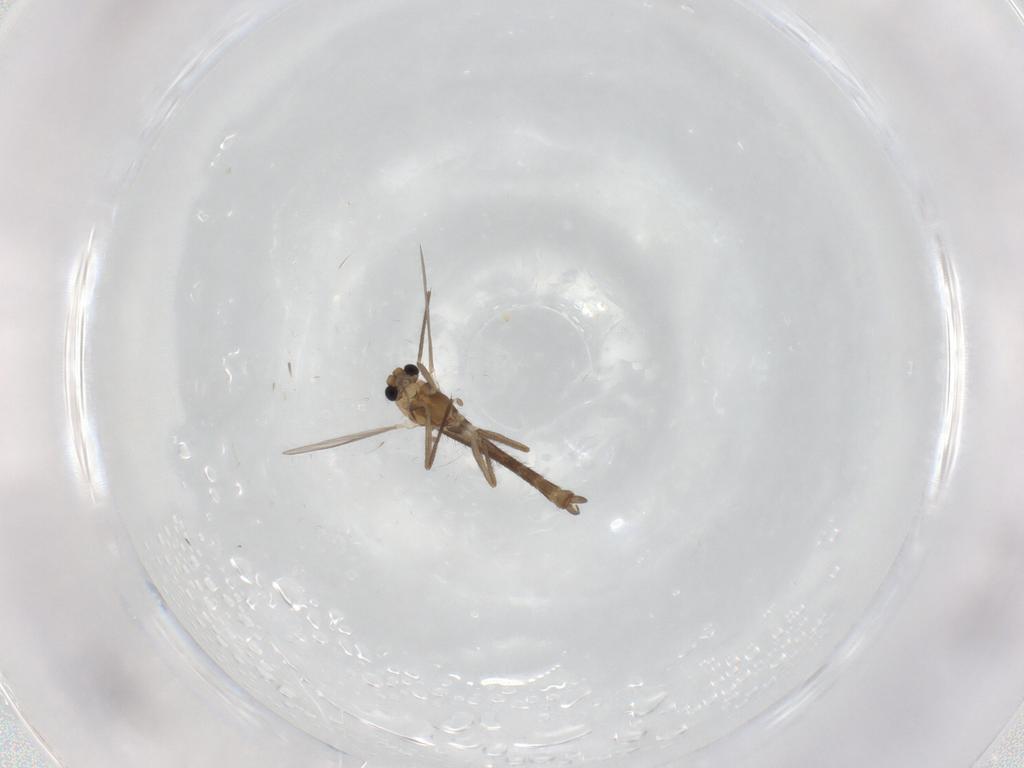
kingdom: Animalia
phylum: Arthropoda
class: Insecta
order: Diptera
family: Chironomidae
